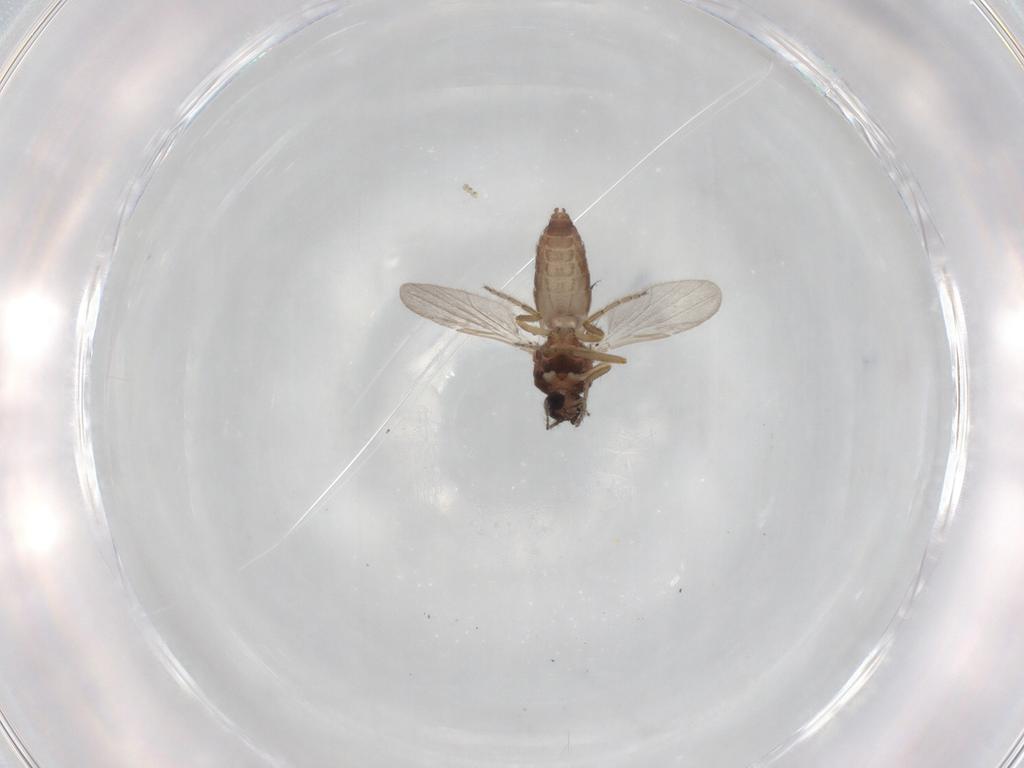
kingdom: Animalia
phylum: Arthropoda
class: Insecta
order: Diptera
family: Ceratopogonidae
